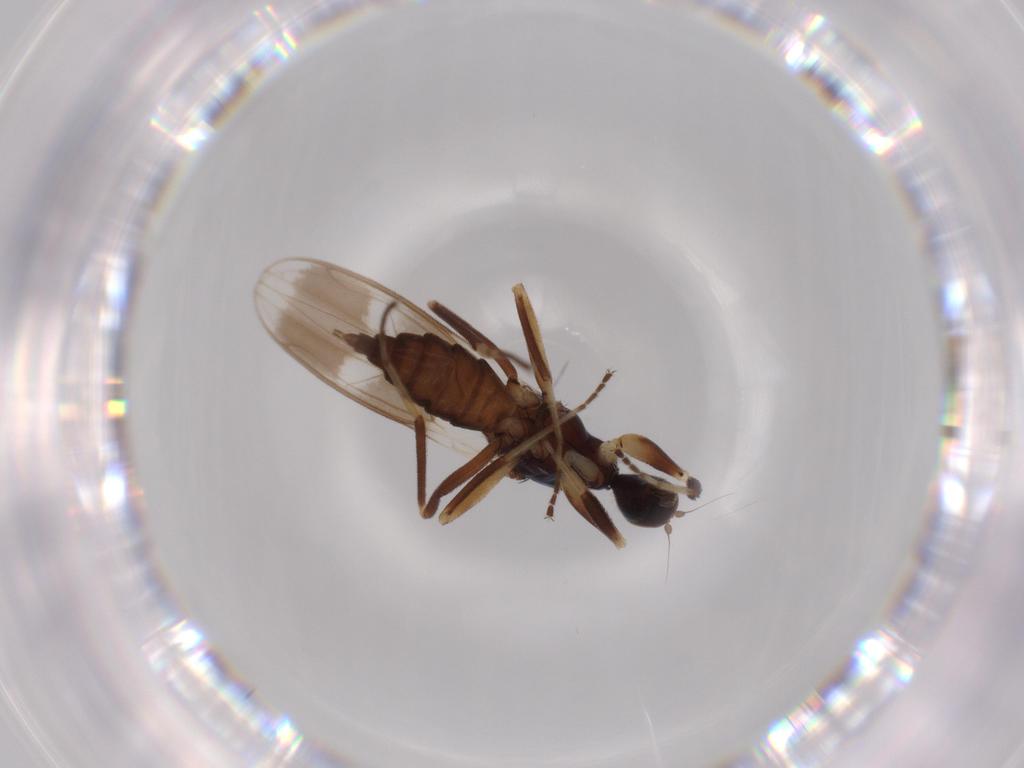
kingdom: Animalia
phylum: Arthropoda
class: Insecta
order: Diptera
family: Hybotidae
